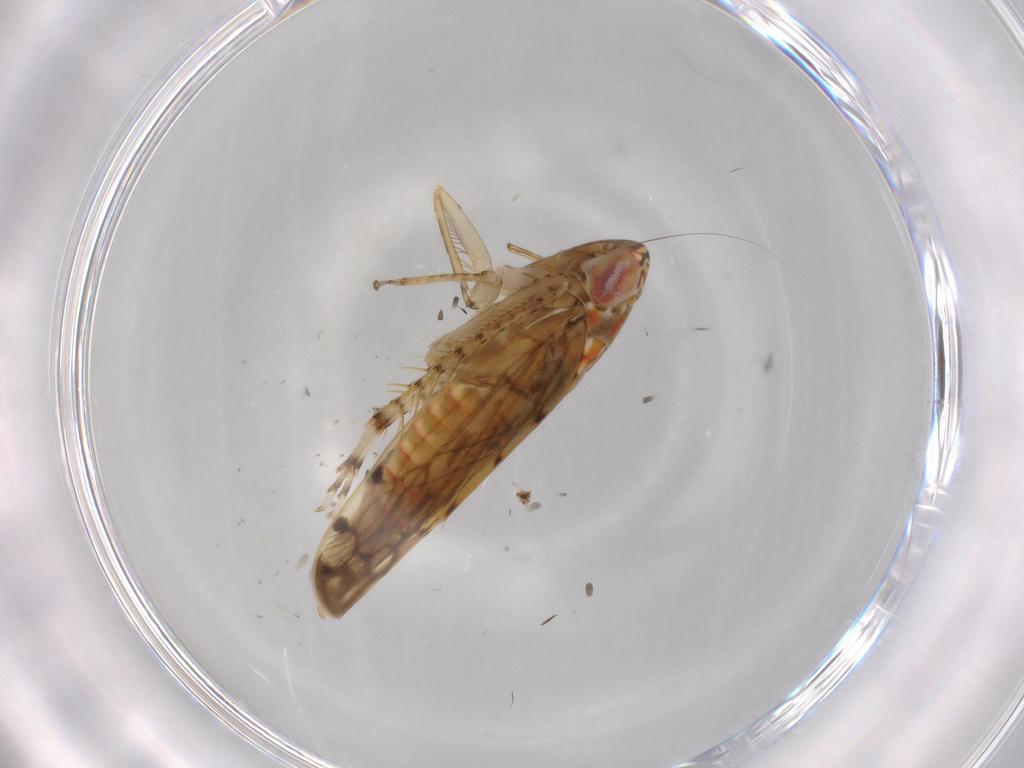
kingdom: Animalia
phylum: Arthropoda
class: Insecta
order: Hemiptera
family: Cicadellidae
